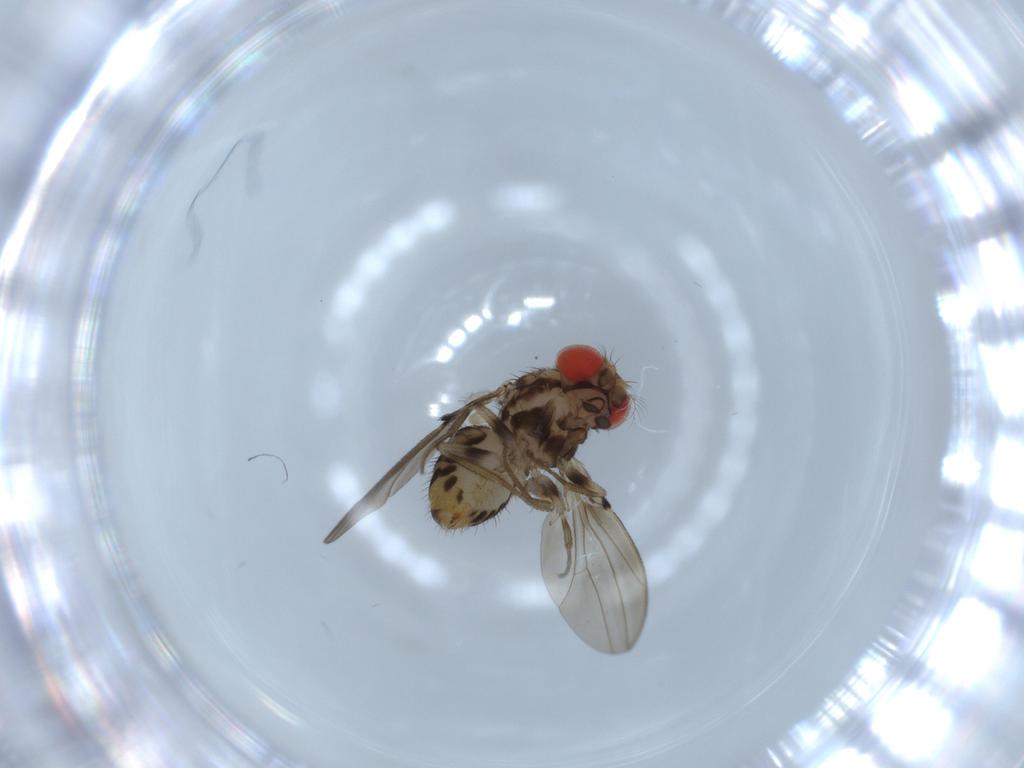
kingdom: Animalia
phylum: Arthropoda
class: Insecta
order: Diptera
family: Drosophilidae
